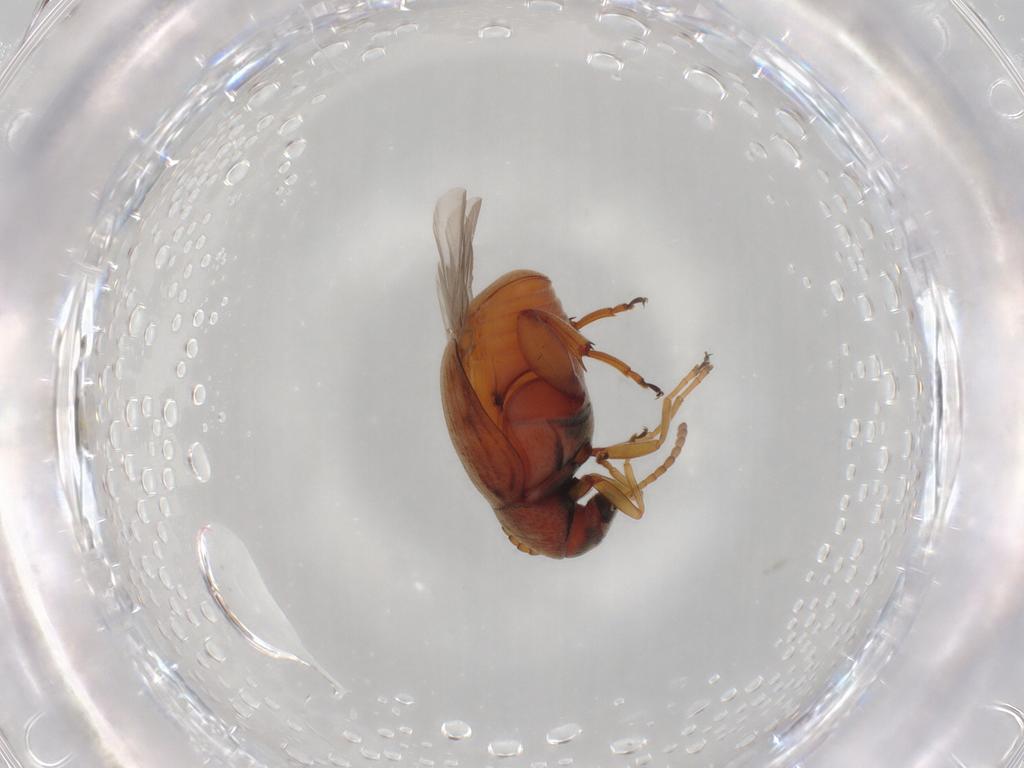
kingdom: Animalia
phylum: Arthropoda
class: Insecta
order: Coleoptera
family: Chrysomelidae
